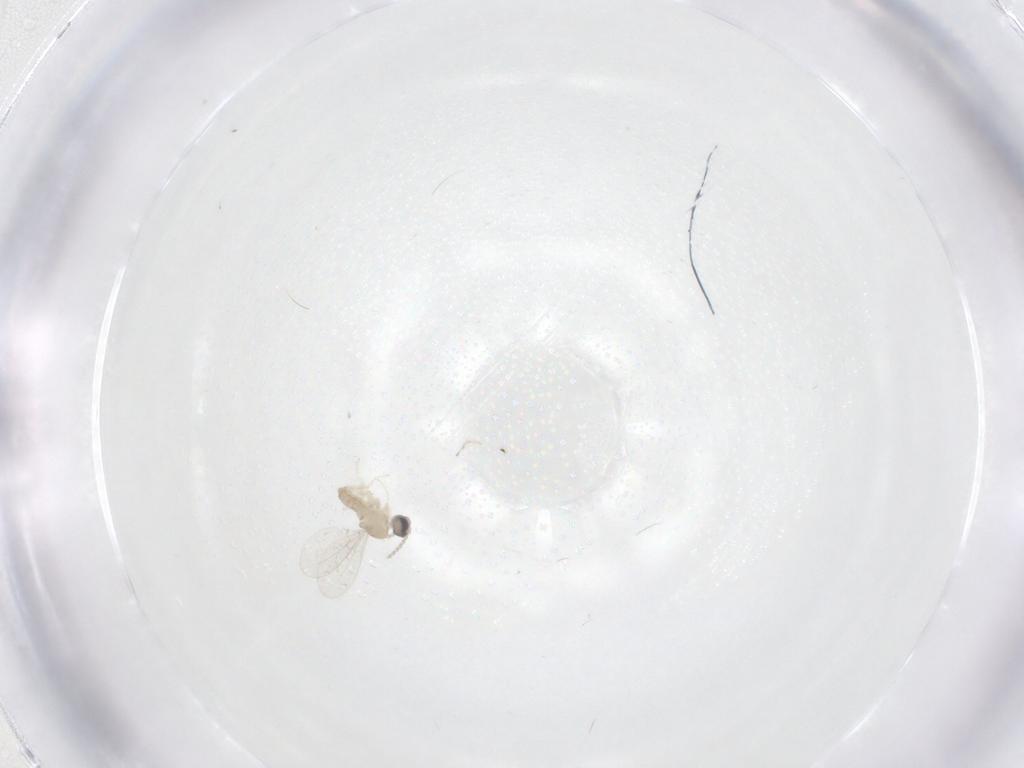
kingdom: Animalia
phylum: Arthropoda
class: Insecta
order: Diptera
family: Cecidomyiidae
